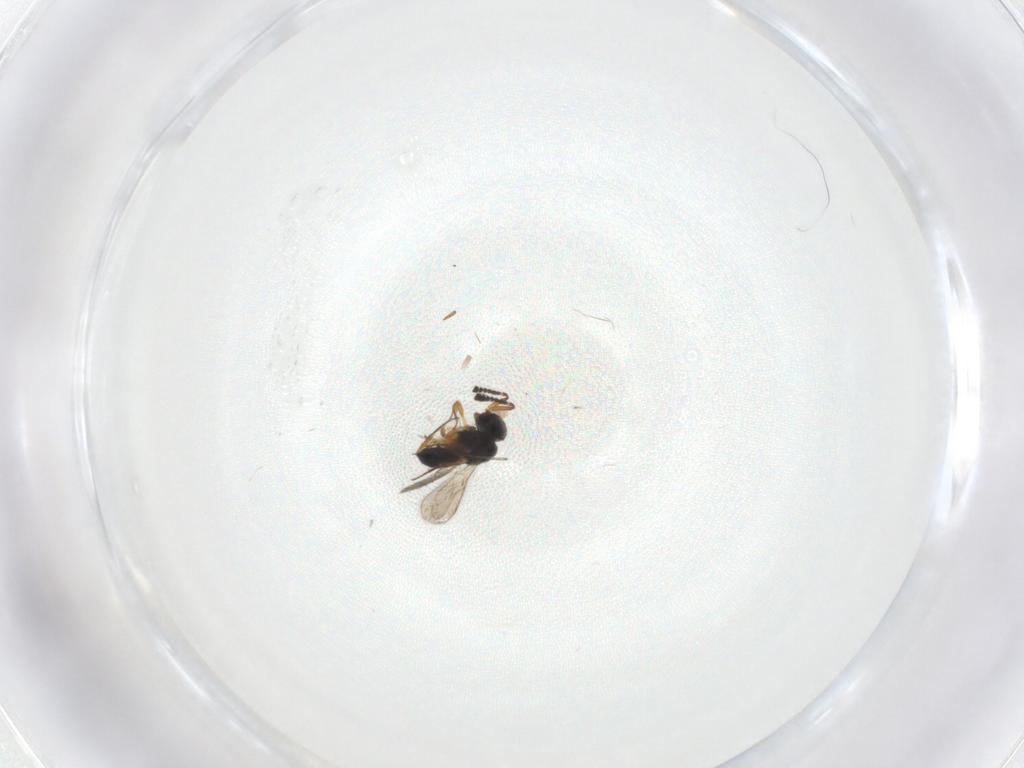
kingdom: Animalia
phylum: Arthropoda
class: Insecta
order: Hymenoptera
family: Scelionidae
